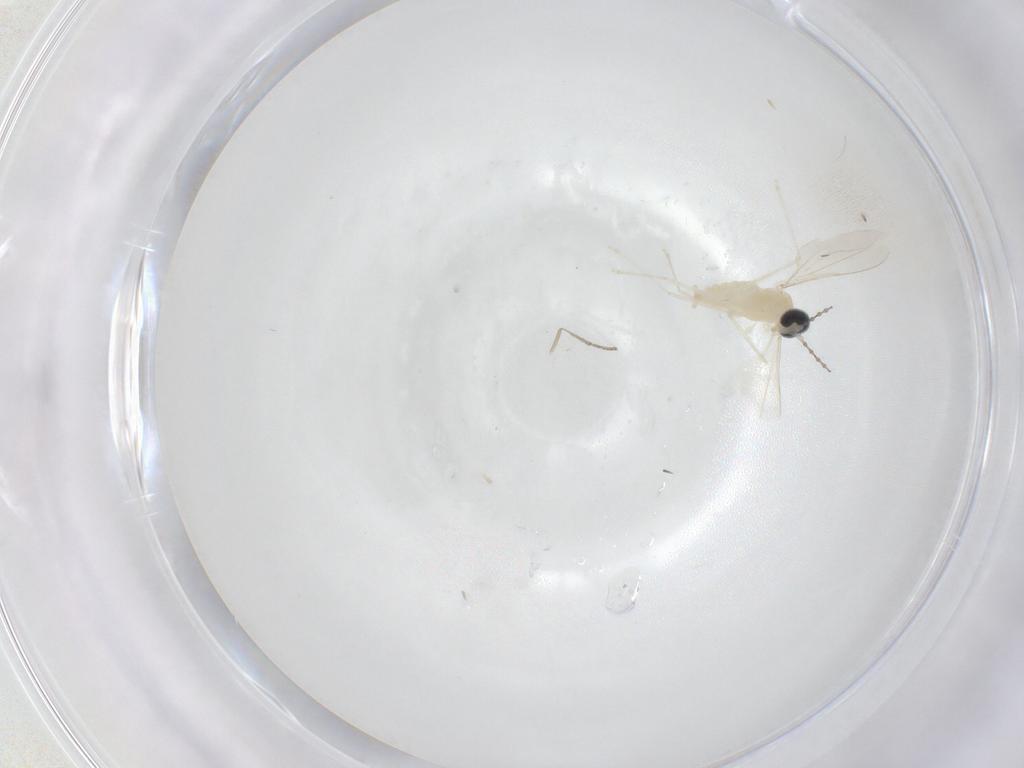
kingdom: Animalia
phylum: Arthropoda
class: Insecta
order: Diptera
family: Cecidomyiidae
